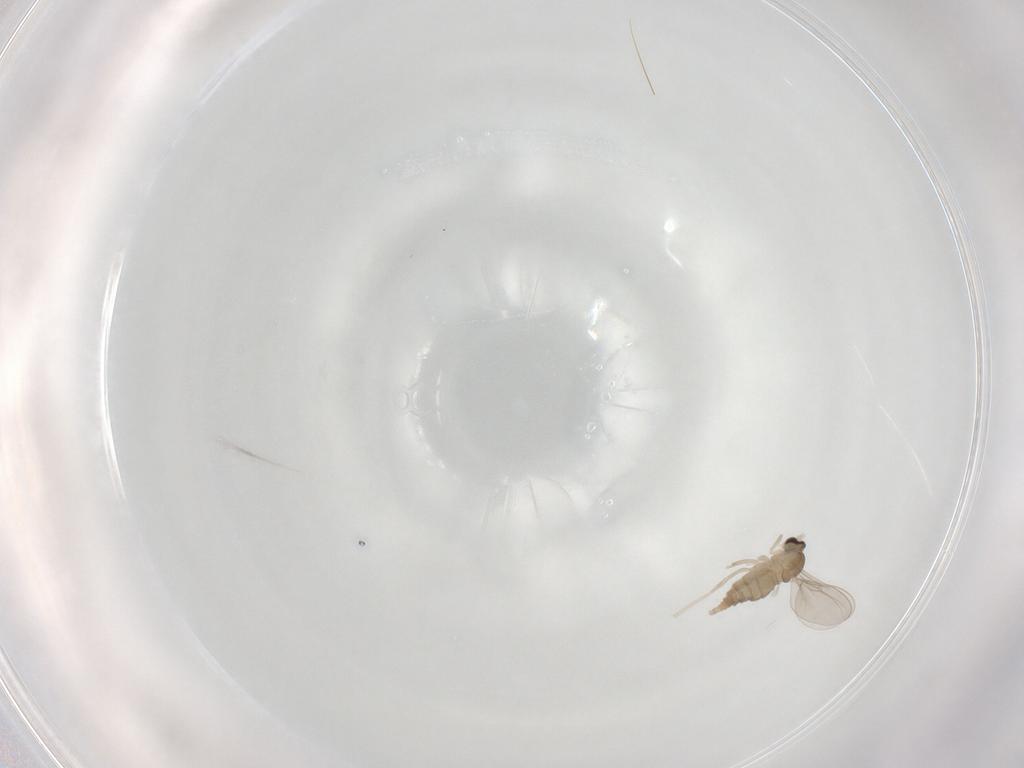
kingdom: Animalia
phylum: Arthropoda
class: Insecta
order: Diptera
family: Cecidomyiidae
